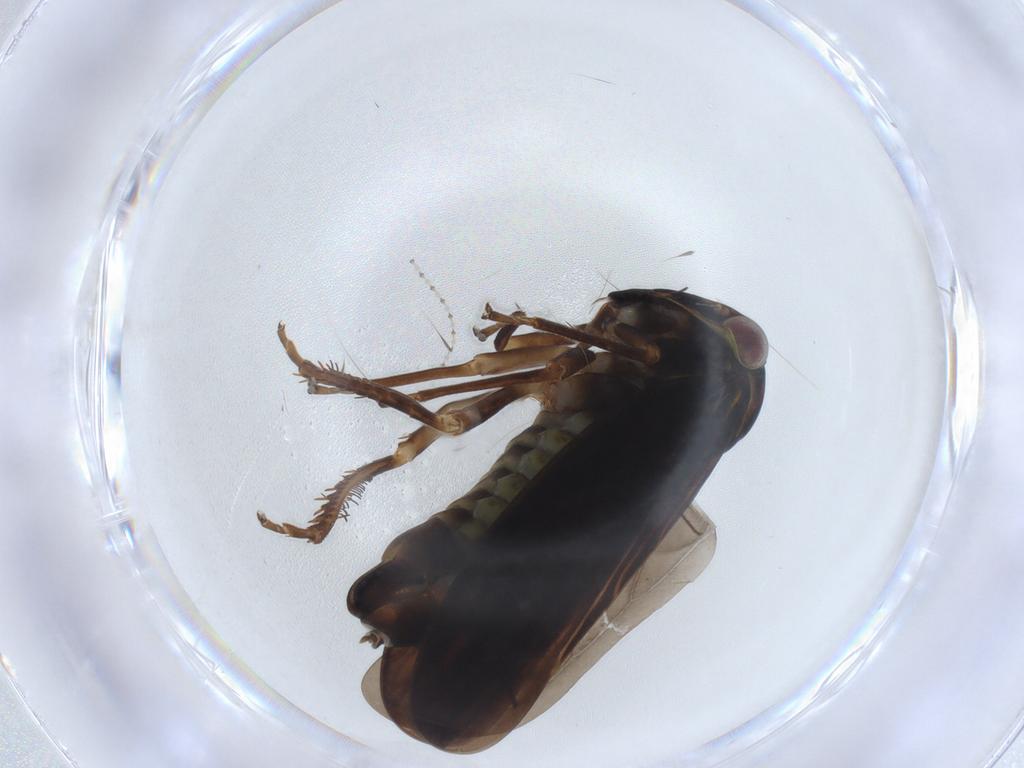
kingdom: Animalia
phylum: Arthropoda
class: Insecta
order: Hemiptera
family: Cicadellidae
